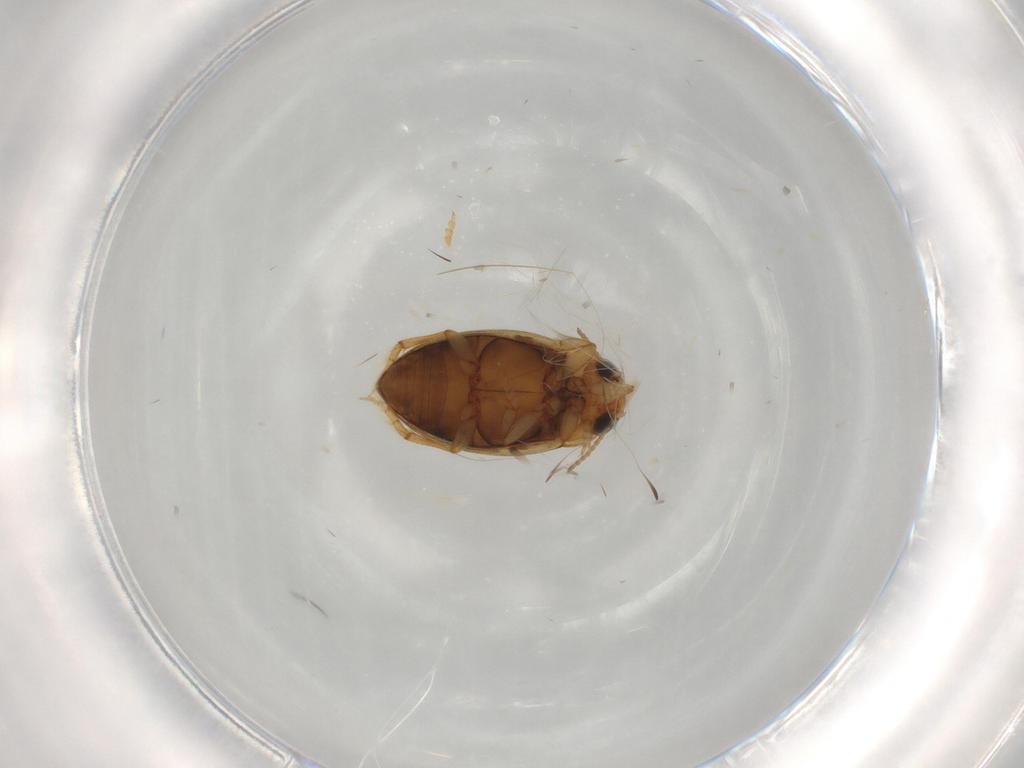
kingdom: Animalia
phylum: Arthropoda
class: Insecta
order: Coleoptera
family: Dytiscidae
